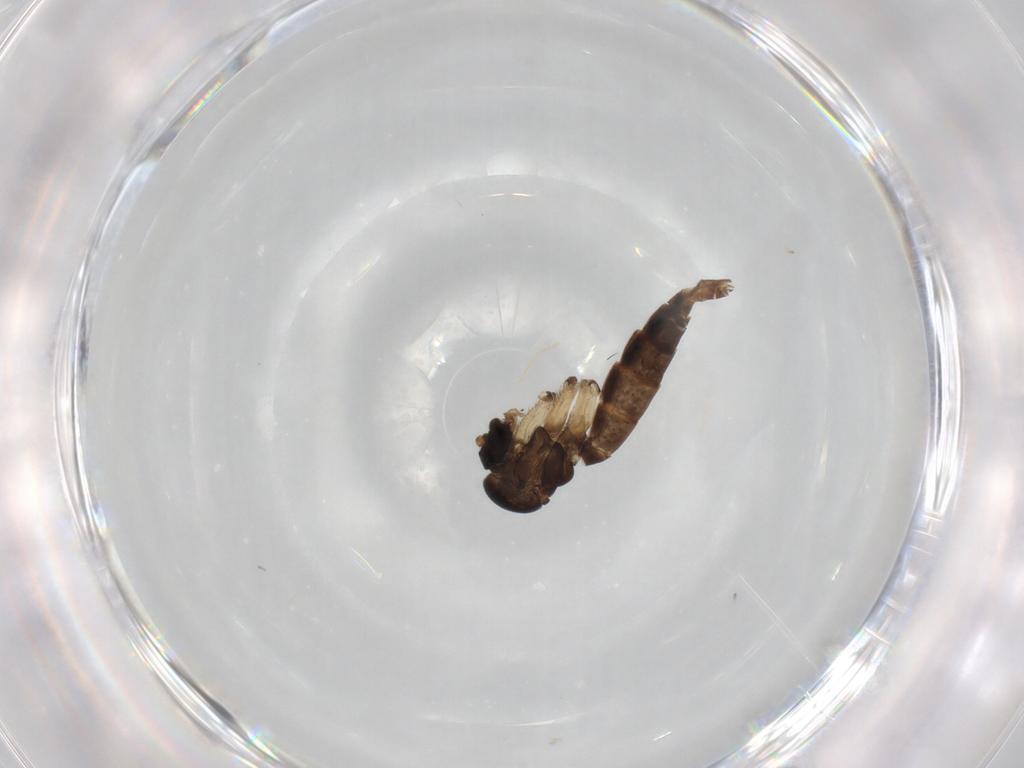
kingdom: Animalia
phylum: Arthropoda
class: Insecta
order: Diptera
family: Mycetophilidae
